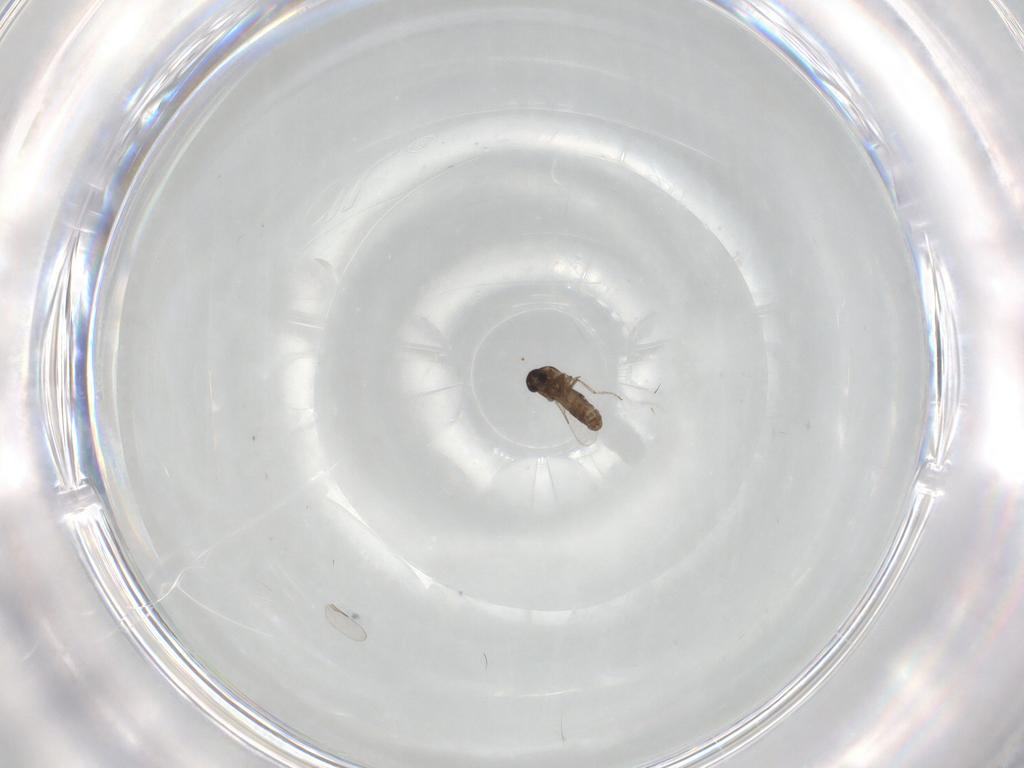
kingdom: Animalia
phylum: Arthropoda
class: Insecta
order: Diptera
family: Ceratopogonidae
